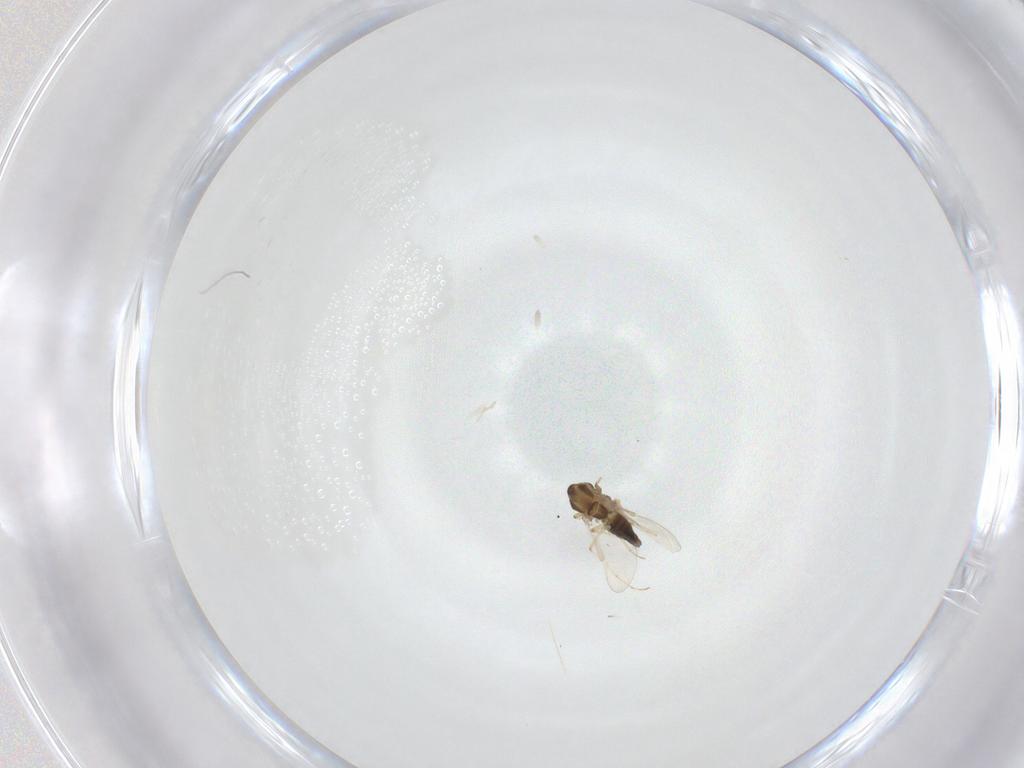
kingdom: Animalia
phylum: Arthropoda
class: Insecta
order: Diptera
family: Chironomidae
